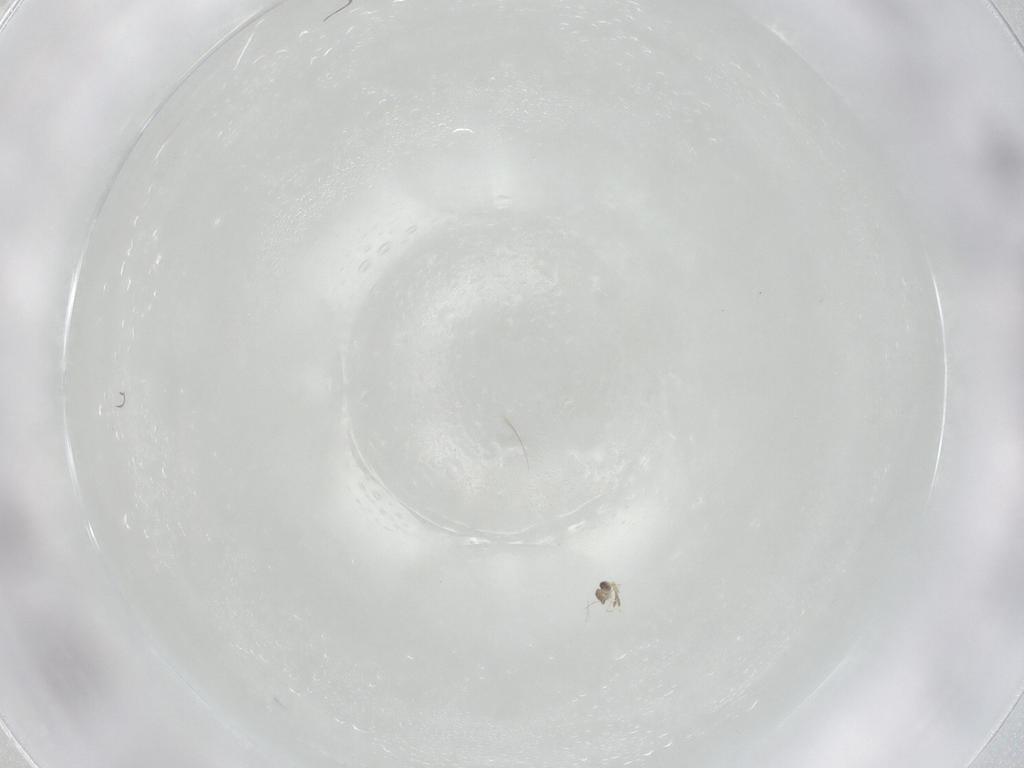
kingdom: Animalia
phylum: Arthropoda
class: Insecta
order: Hymenoptera
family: Mymaridae
